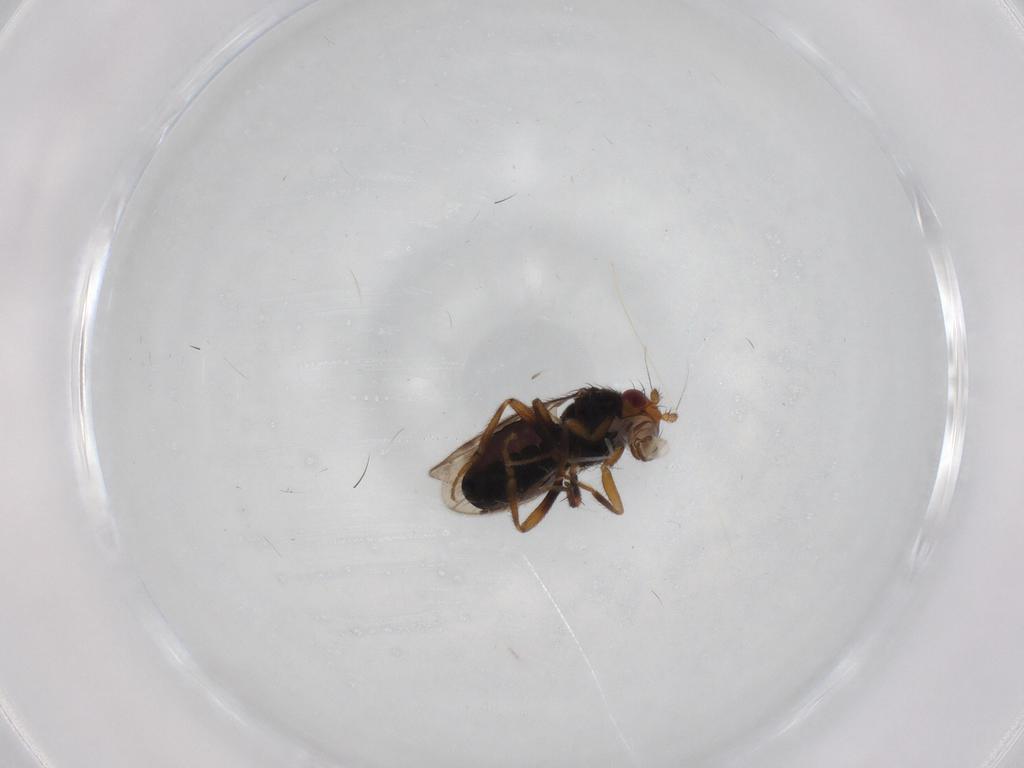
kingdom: Animalia
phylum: Arthropoda
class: Insecta
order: Diptera
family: Sphaeroceridae
